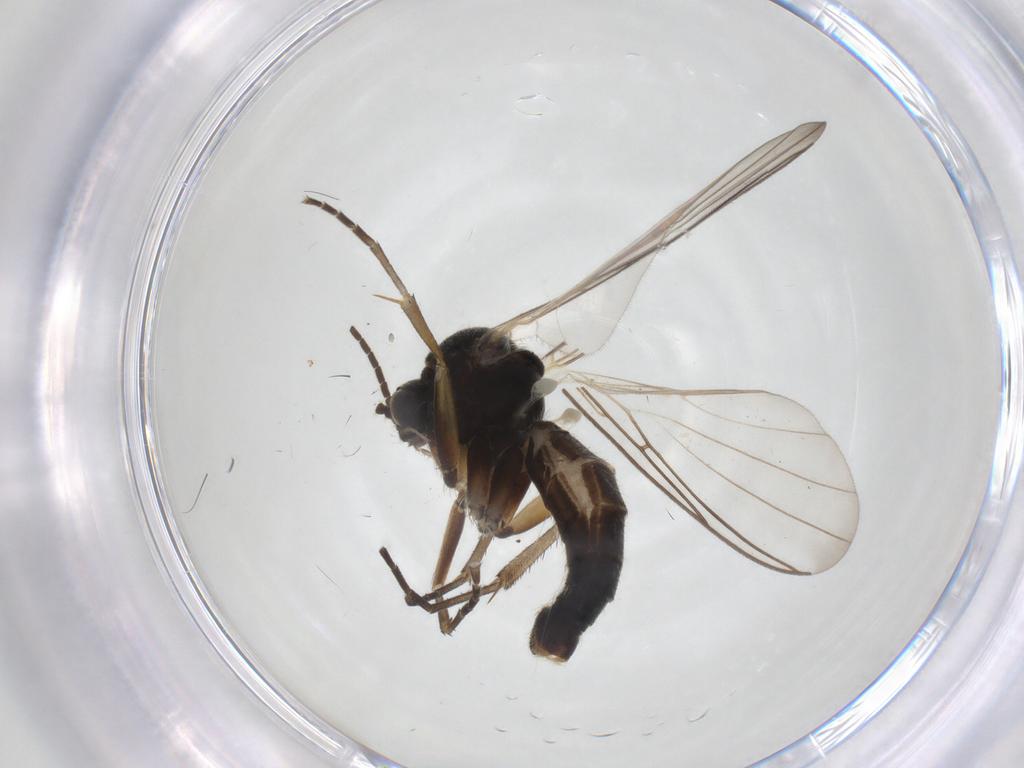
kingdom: Animalia
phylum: Arthropoda
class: Insecta
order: Diptera
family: Mycetophilidae
